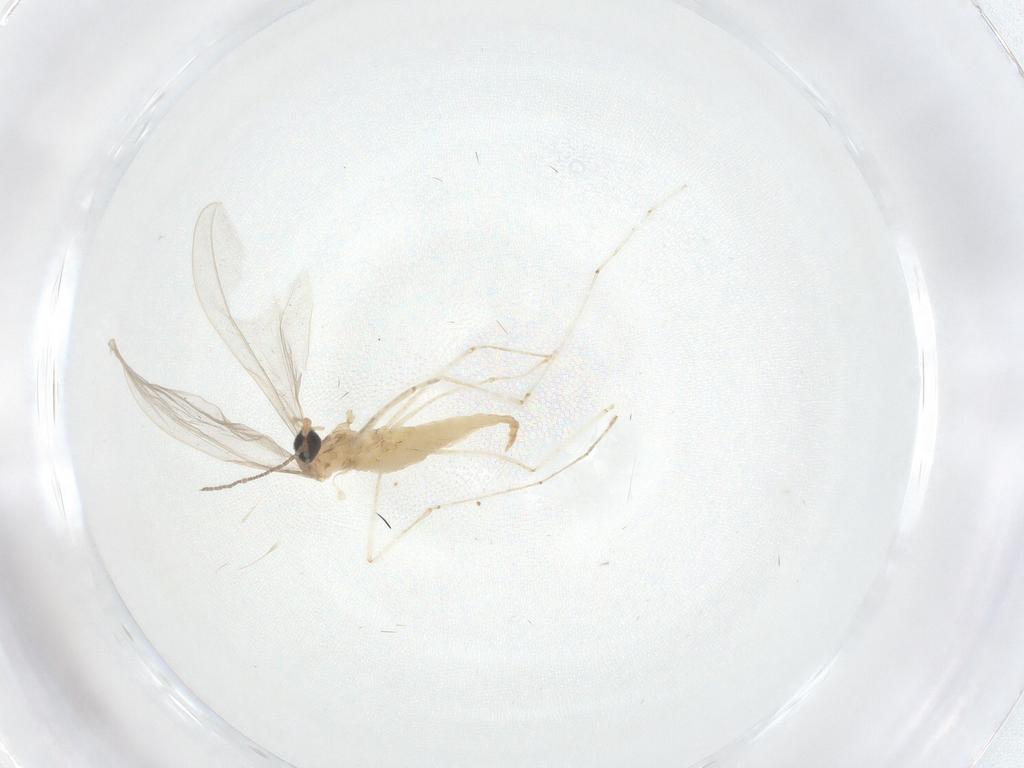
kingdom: Animalia
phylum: Arthropoda
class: Insecta
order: Diptera
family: Cecidomyiidae
